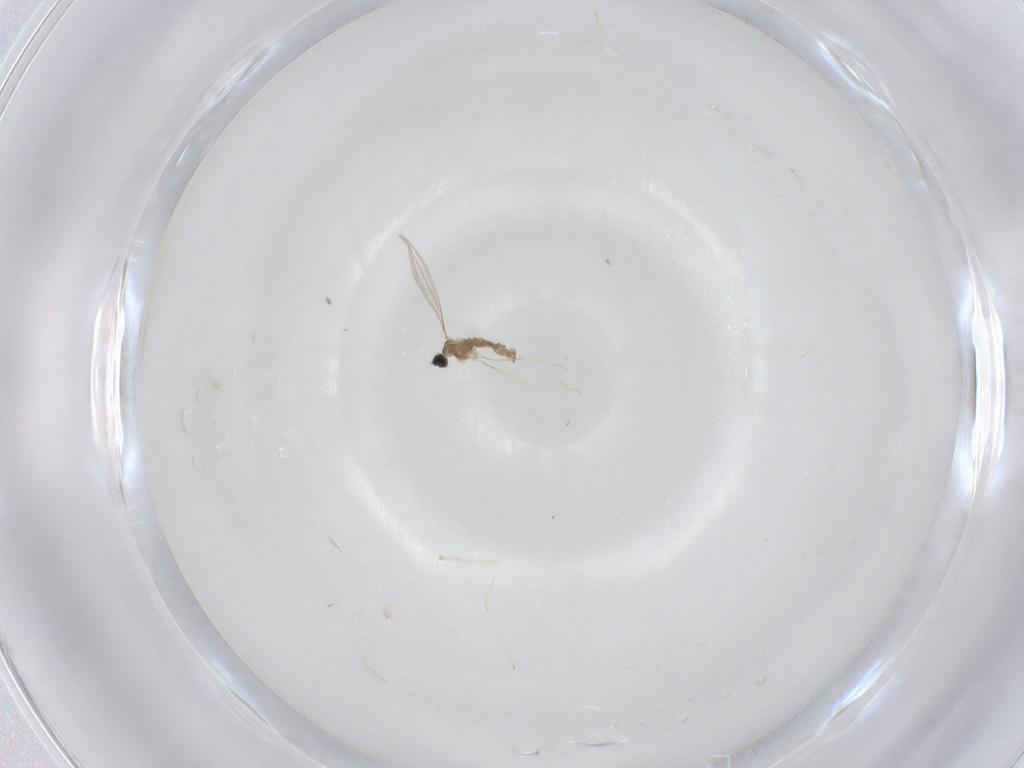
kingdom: Animalia
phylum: Arthropoda
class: Insecta
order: Diptera
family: Cecidomyiidae
